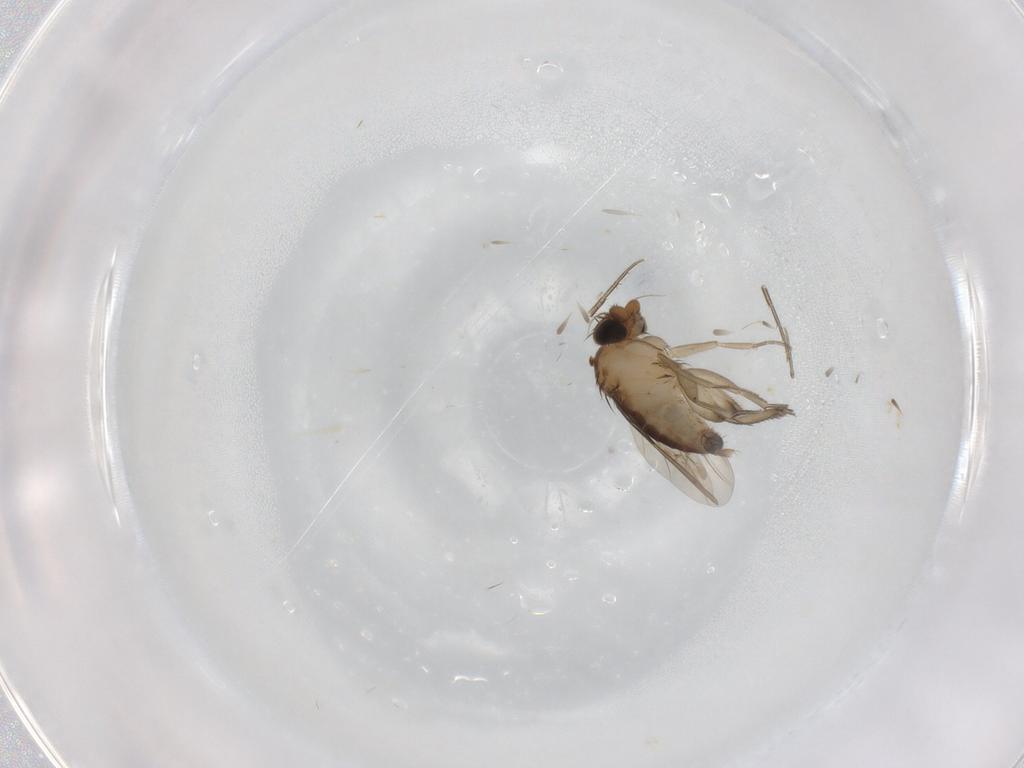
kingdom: Animalia
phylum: Arthropoda
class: Insecta
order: Diptera
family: Phoridae
